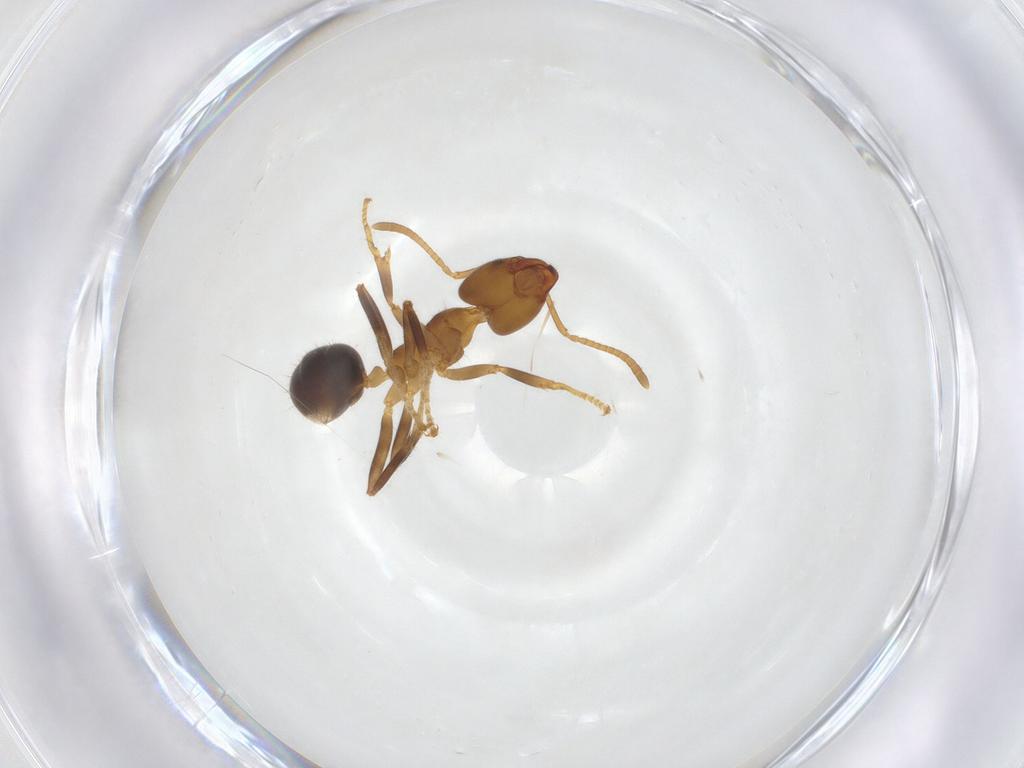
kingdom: Animalia
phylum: Arthropoda
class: Insecta
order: Hymenoptera
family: Formicidae
